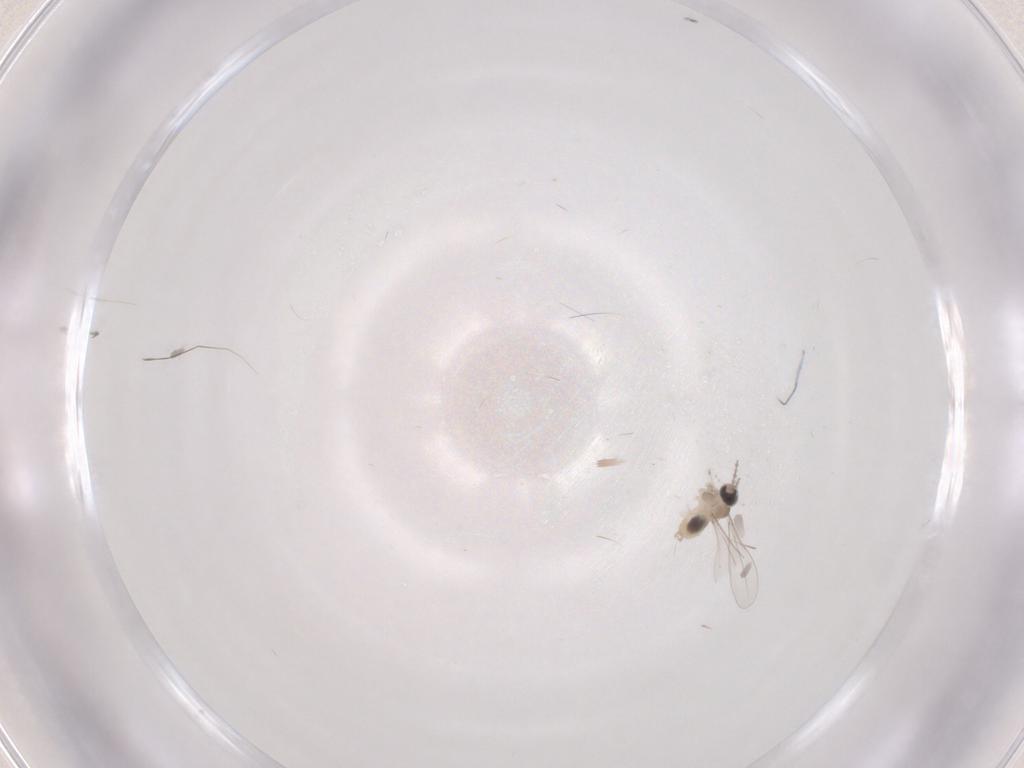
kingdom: Animalia
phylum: Arthropoda
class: Insecta
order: Diptera
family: Cecidomyiidae
